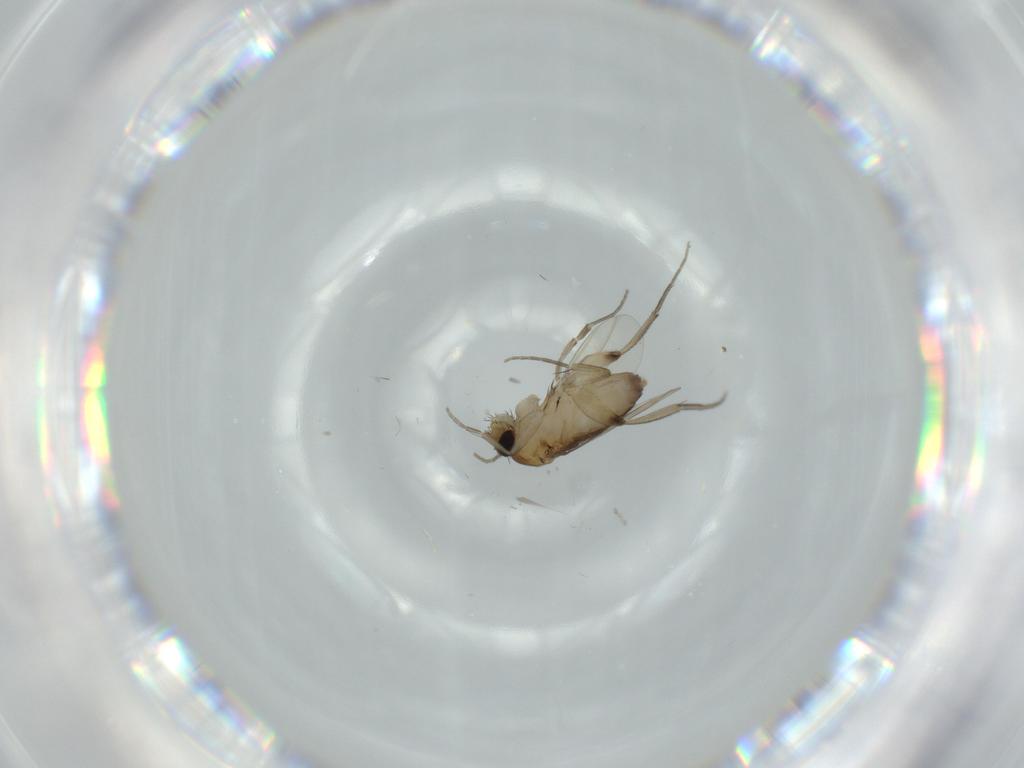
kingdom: Animalia
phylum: Arthropoda
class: Insecta
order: Diptera
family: Phoridae
